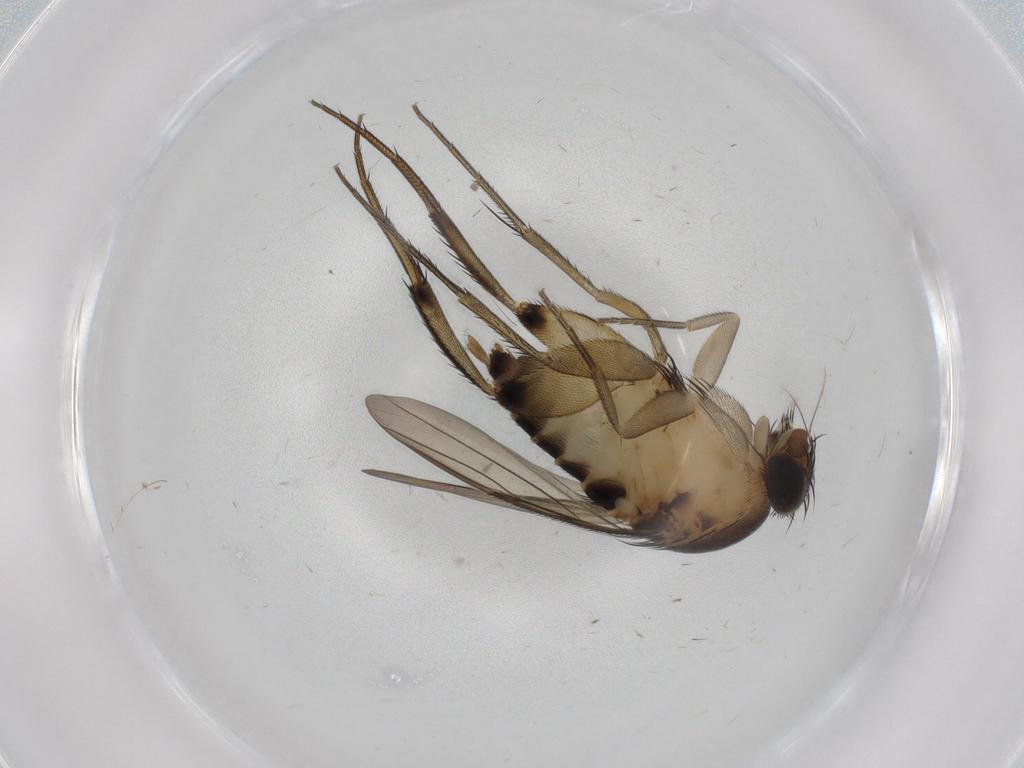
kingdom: Animalia
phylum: Arthropoda
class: Insecta
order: Diptera
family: Phoridae
